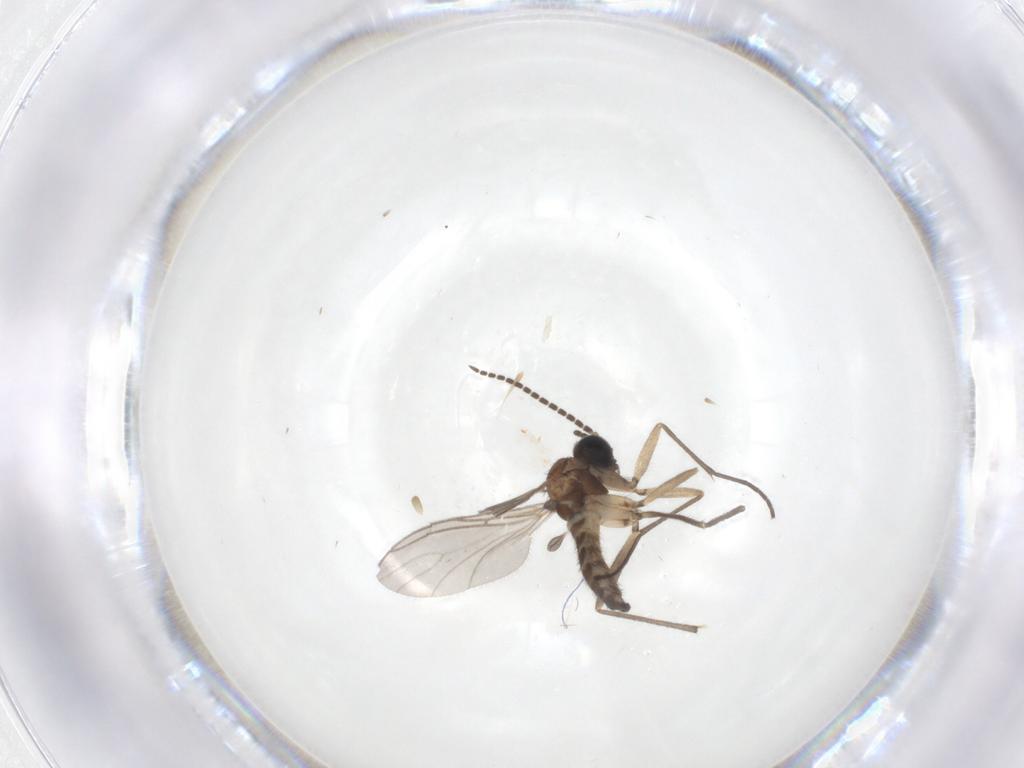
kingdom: Animalia
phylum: Arthropoda
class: Insecta
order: Diptera
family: Sciaridae
